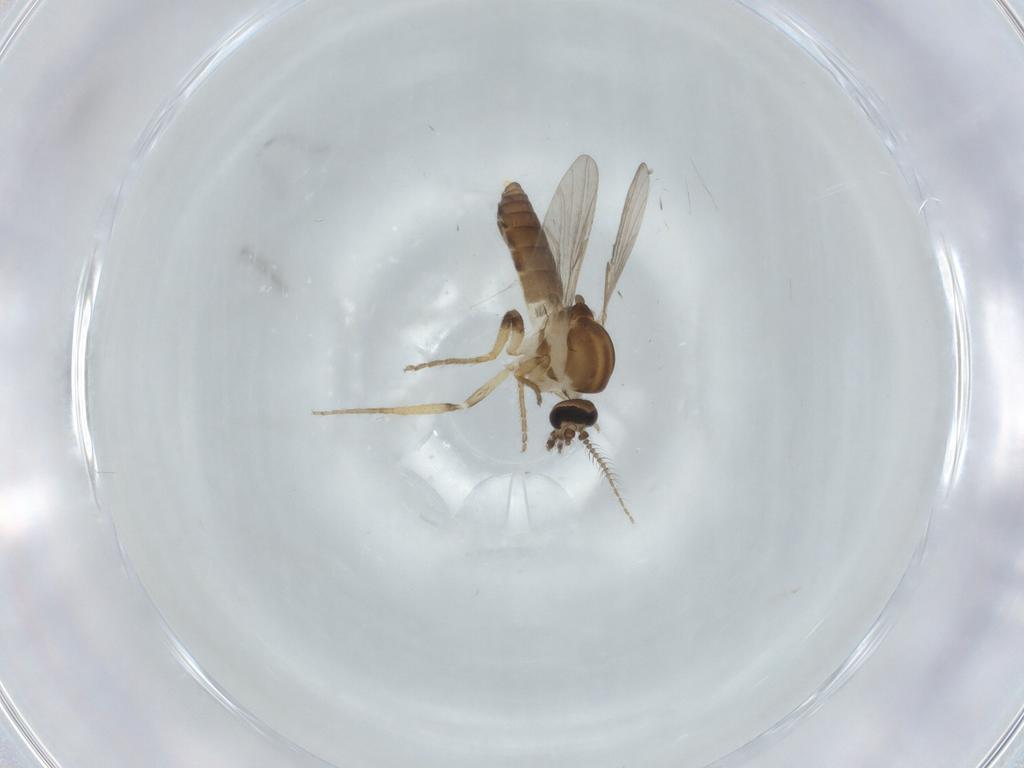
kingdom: Animalia
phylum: Arthropoda
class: Insecta
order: Diptera
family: Ceratopogonidae
